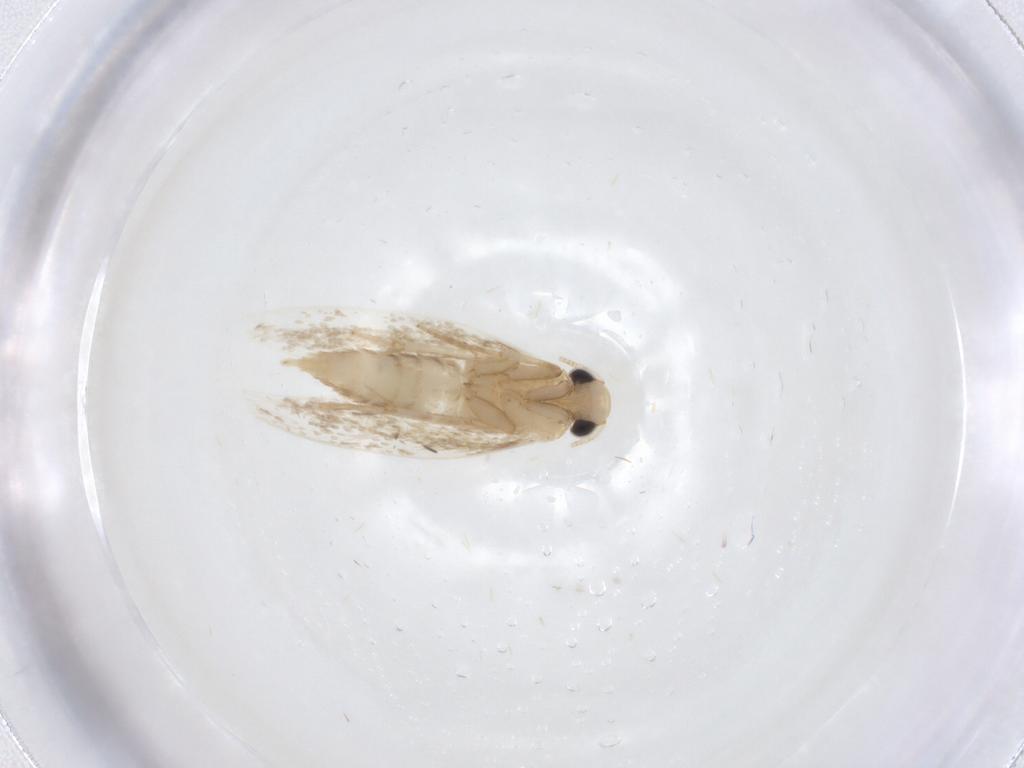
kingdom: Animalia
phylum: Arthropoda
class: Insecta
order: Lepidoptera
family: Tineidae
